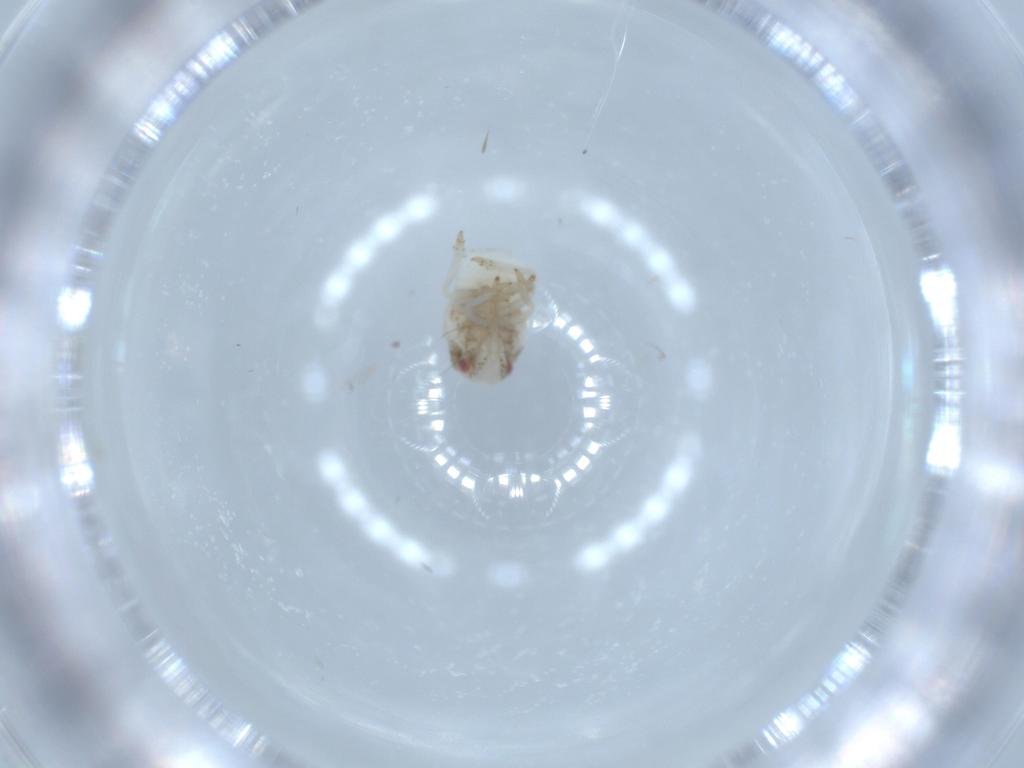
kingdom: Animalia
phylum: Arthropoda
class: Insecta
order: Hemiptera
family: Acanaloniidae
